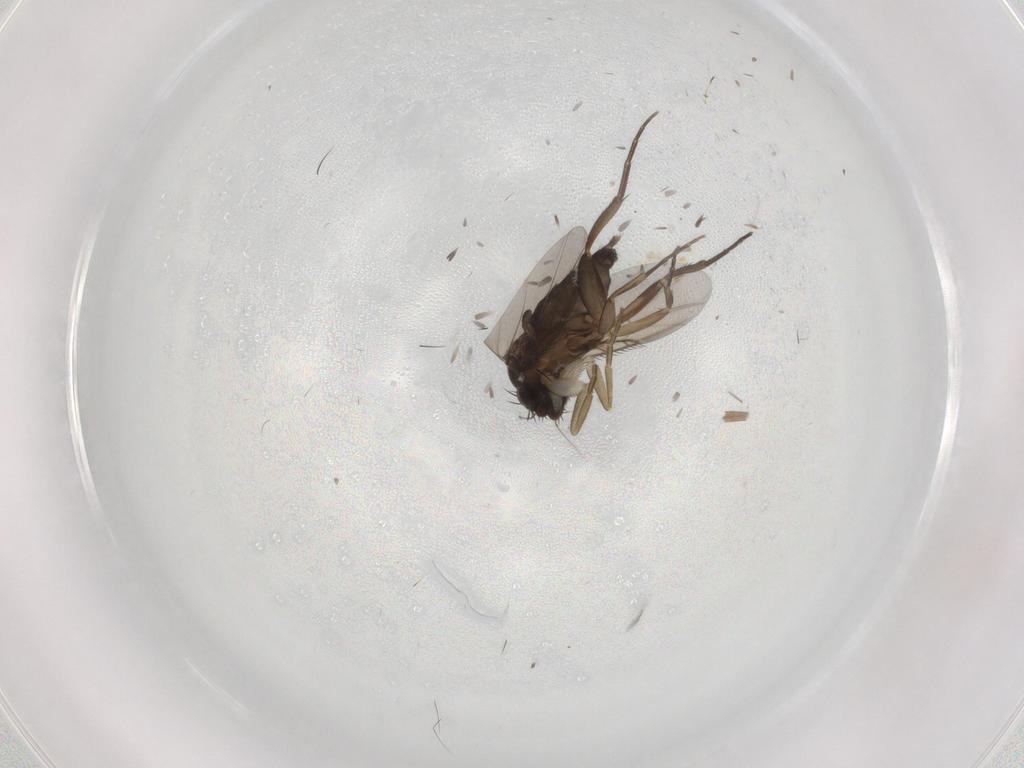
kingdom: Animalia
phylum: Arthropoda
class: Insecta
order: Diptera
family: Phoridae
